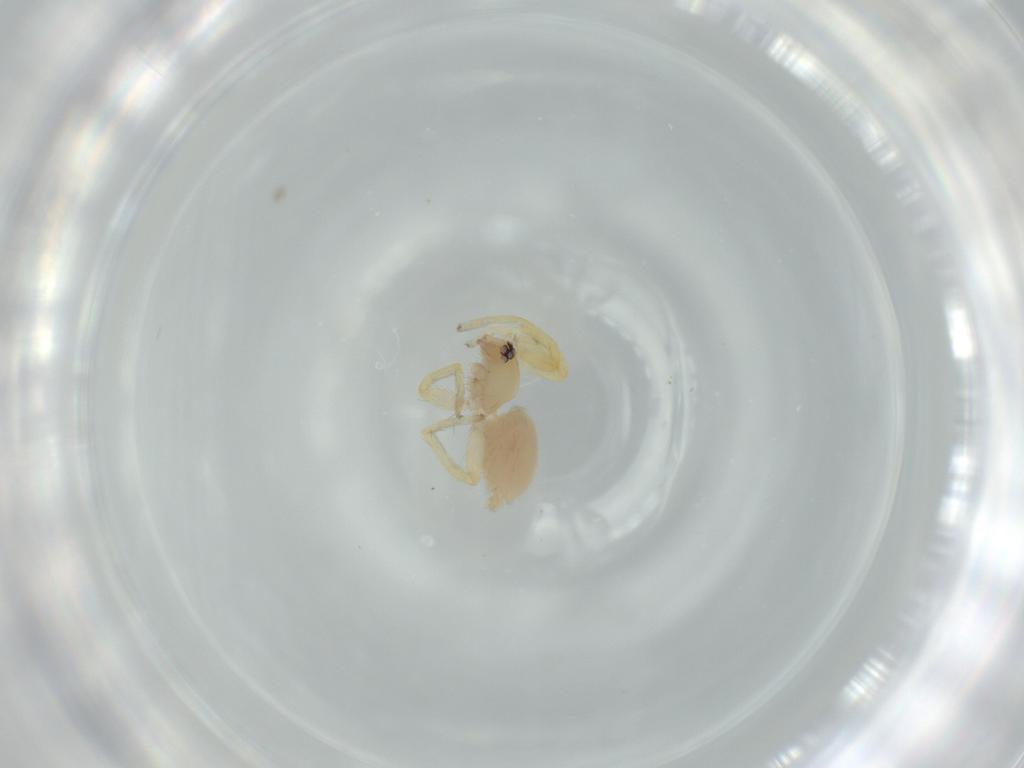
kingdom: Animalia
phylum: Arthropoda
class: Arachnida
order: Araneae
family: Oonopidae
